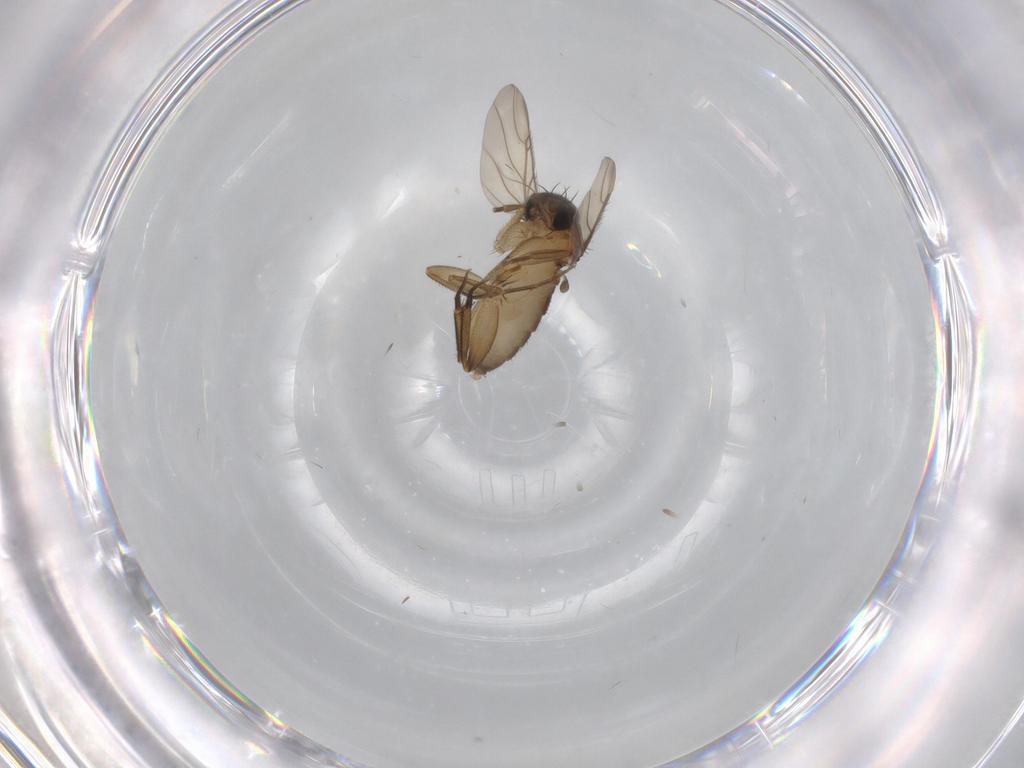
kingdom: Animalia
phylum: Arthropoda
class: Insecta
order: Diptera
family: Phoridae
